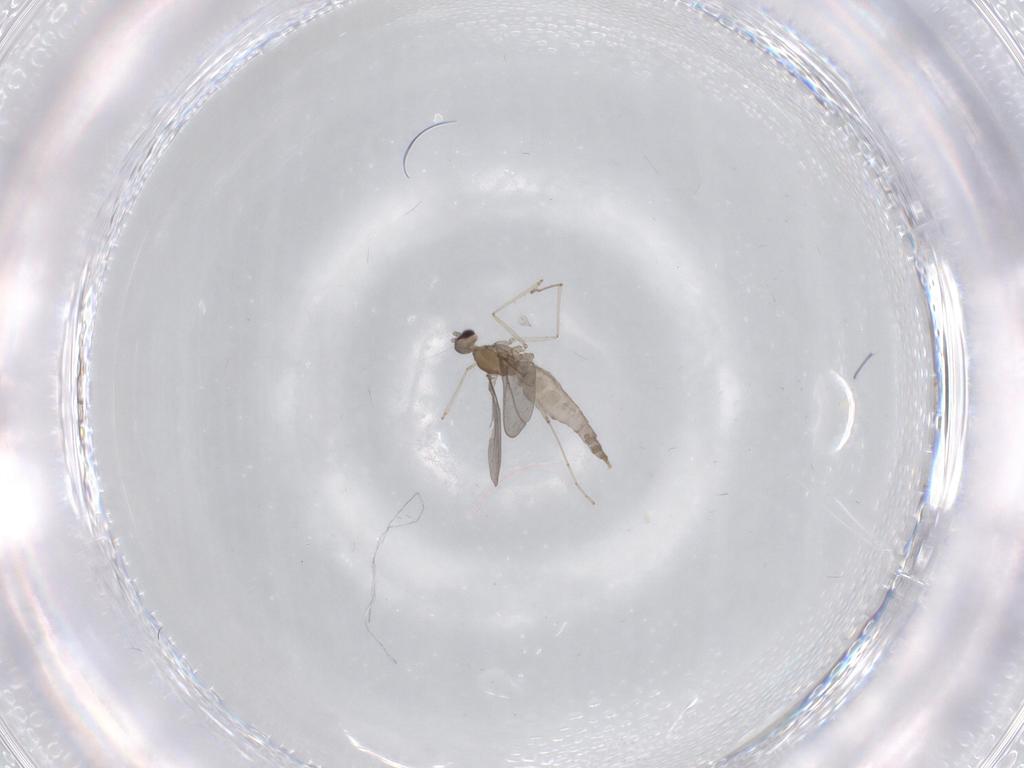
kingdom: Animalia
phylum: Arthropoda
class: Insecta
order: Diptera
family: Cecidomyiidae
